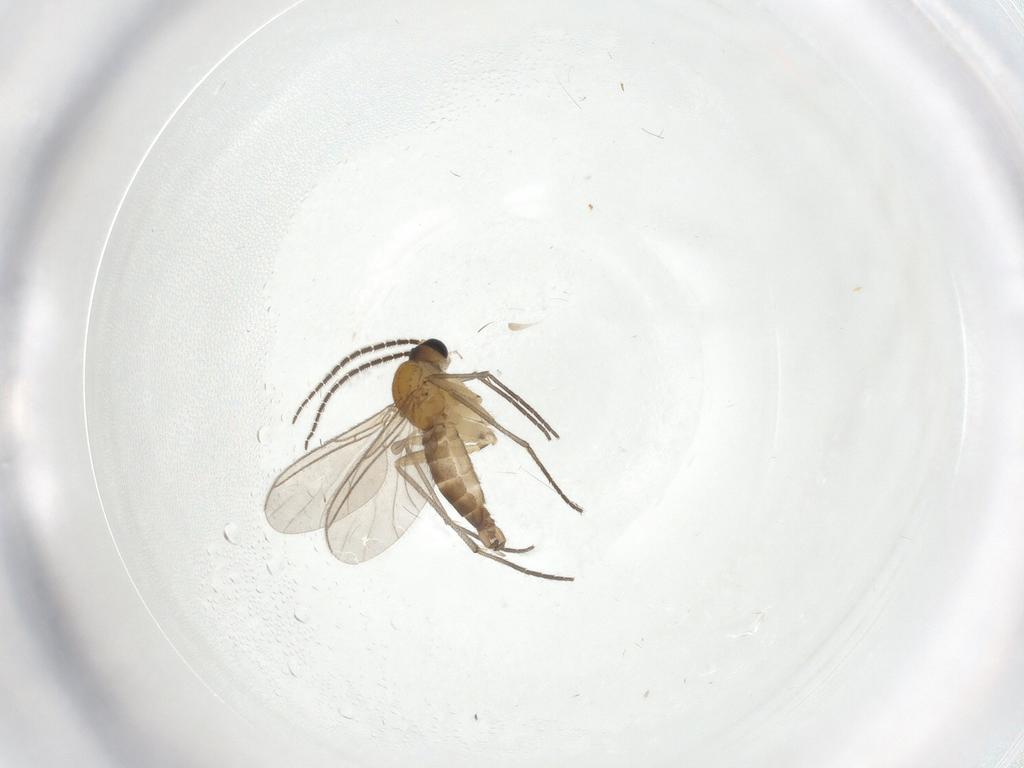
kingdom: Animalia
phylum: Arthropoda
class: Insecta
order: Diptera
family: Sciaridae
